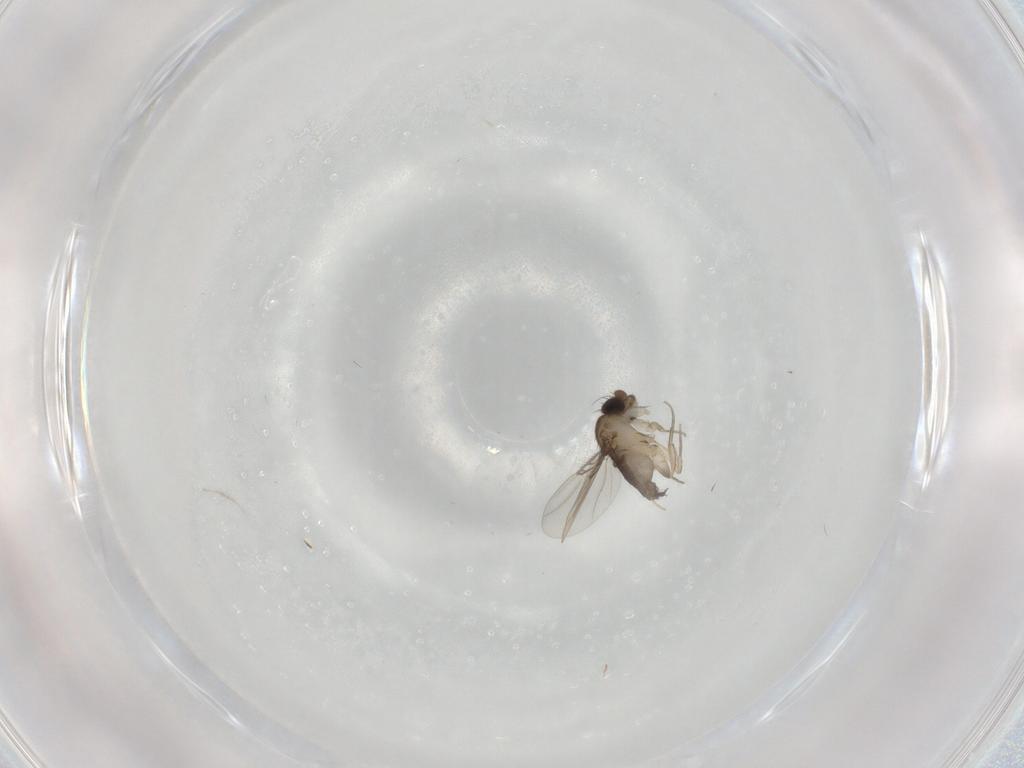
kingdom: Animalia
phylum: Arthropoda
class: Insecta
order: Diptera
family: Phoridae
